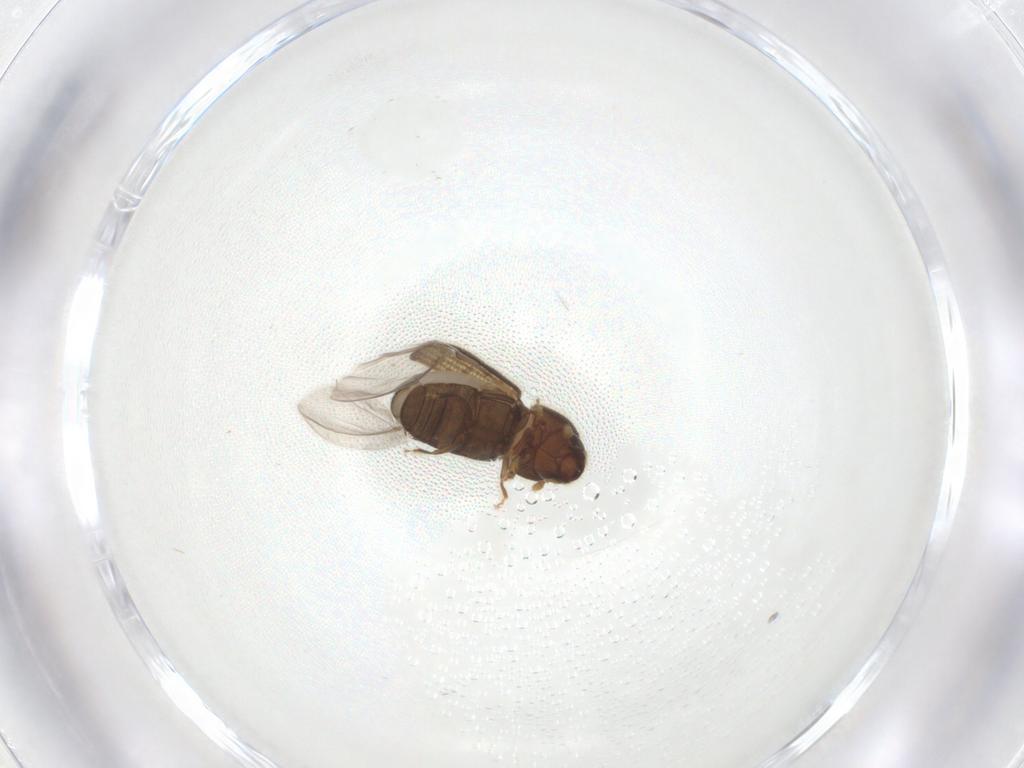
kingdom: Animalia
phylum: Arthropoda
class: Insecta
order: Coleoptera
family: Curculionidae
